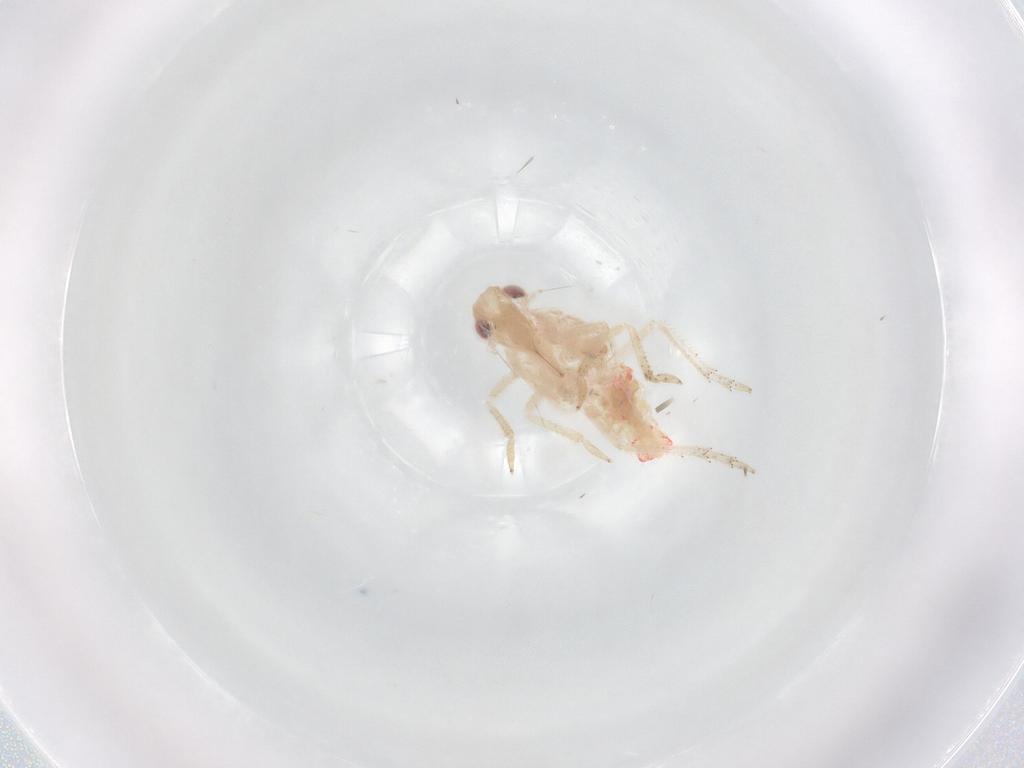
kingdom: Animalia
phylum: Arthropoda
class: Insecta
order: Hemiptera
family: Tropiduchidae
